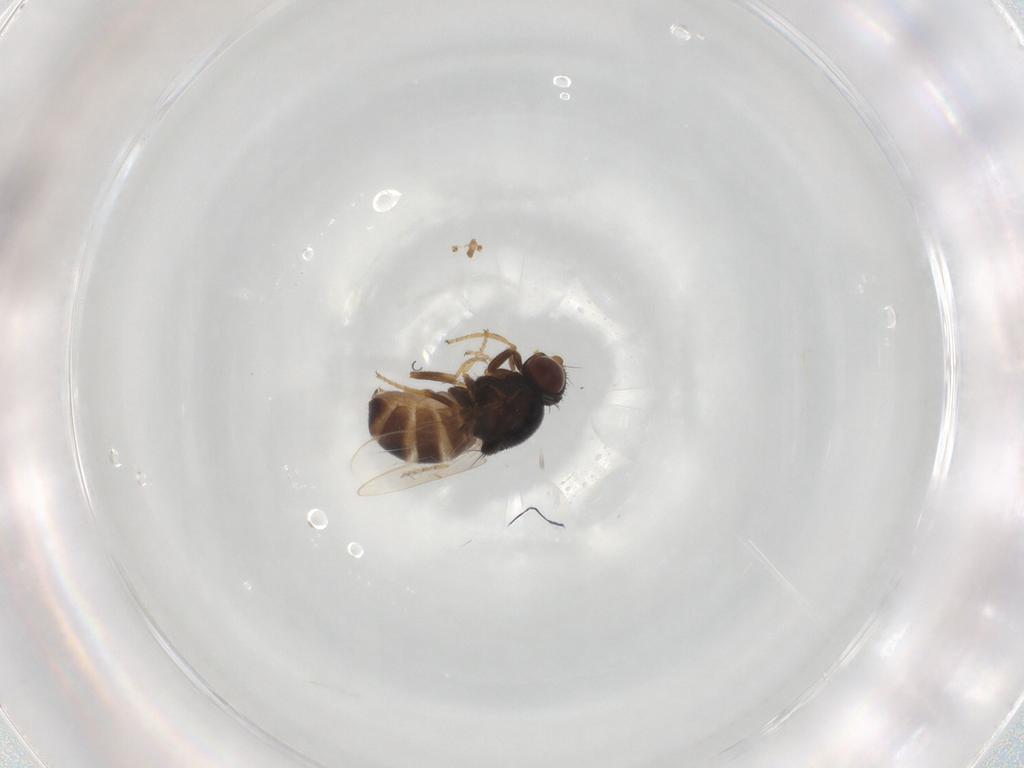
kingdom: Animalia
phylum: Arthropoda
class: Insecta
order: Diptera
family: Chloropidae
